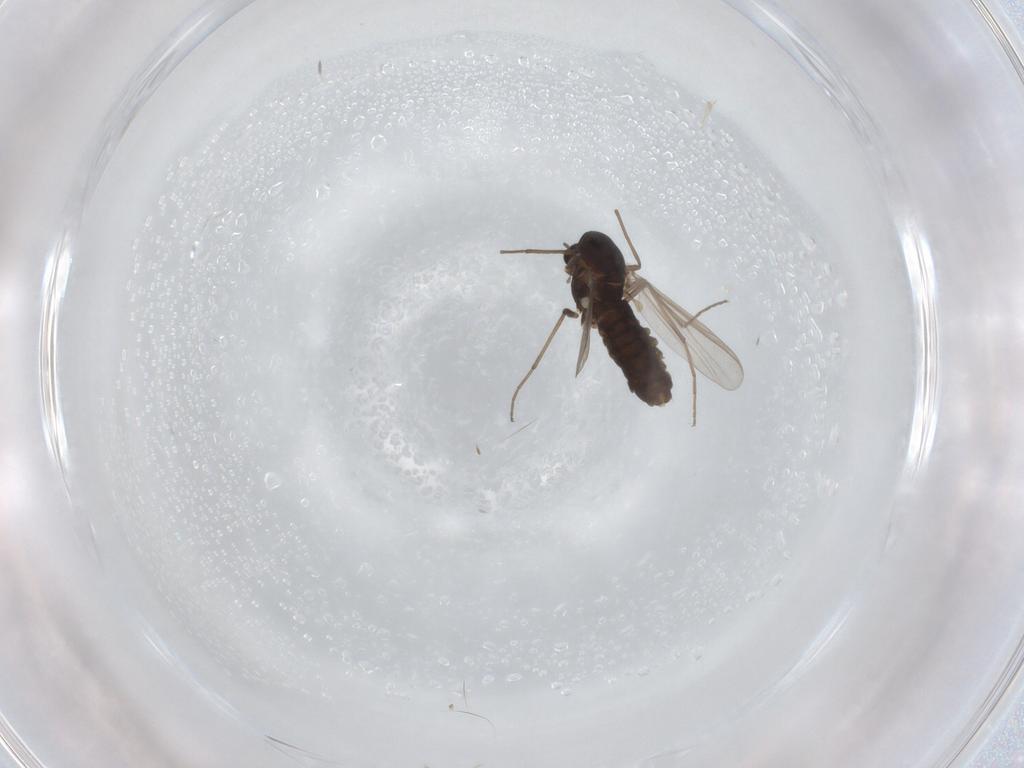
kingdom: Animalia
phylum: Arthropoda
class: Insecta
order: Diptera
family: Chironomidae
